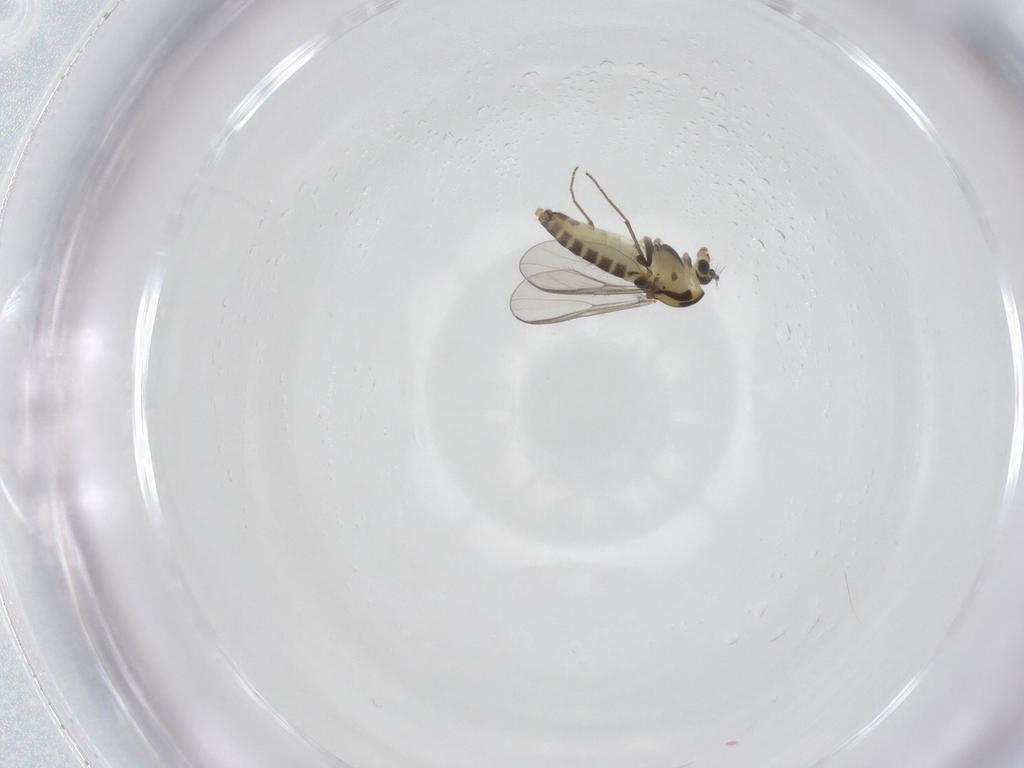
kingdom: Animalia
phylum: Arthropoda
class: Insecta
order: Diptera
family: Chironomidae
